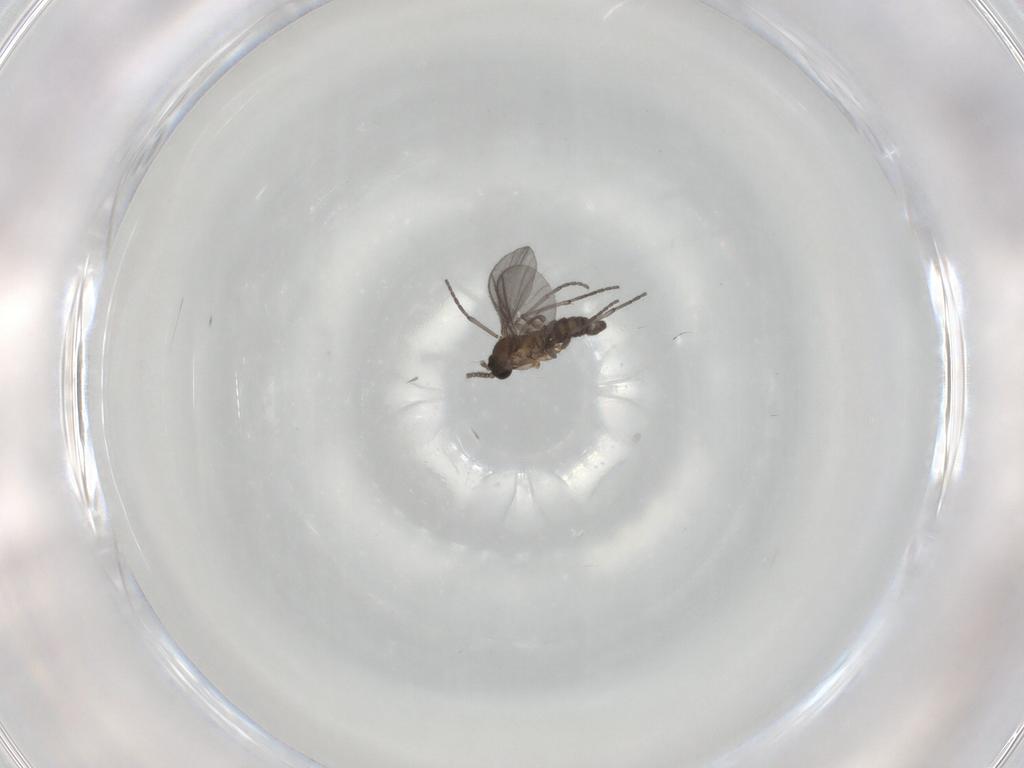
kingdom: Animalia
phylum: Arthropoda
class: Insecta
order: Diptera
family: Sciaridae
